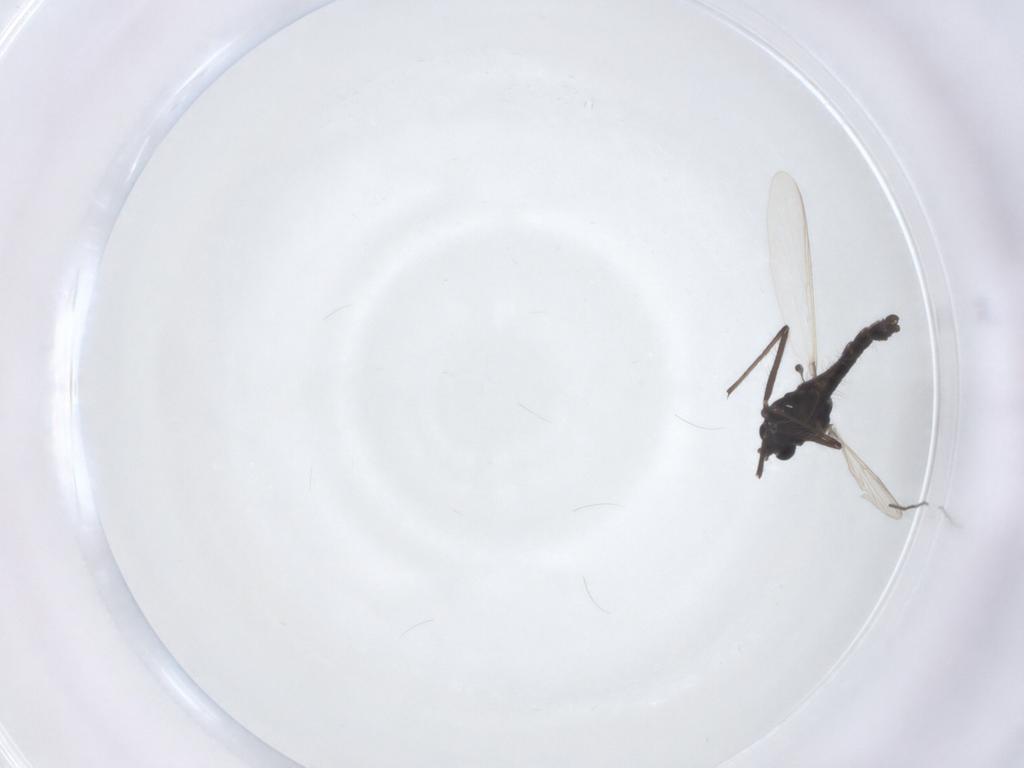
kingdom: Animalia
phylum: Arthropoda
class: Insecta
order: Diptera
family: Chironomidae
